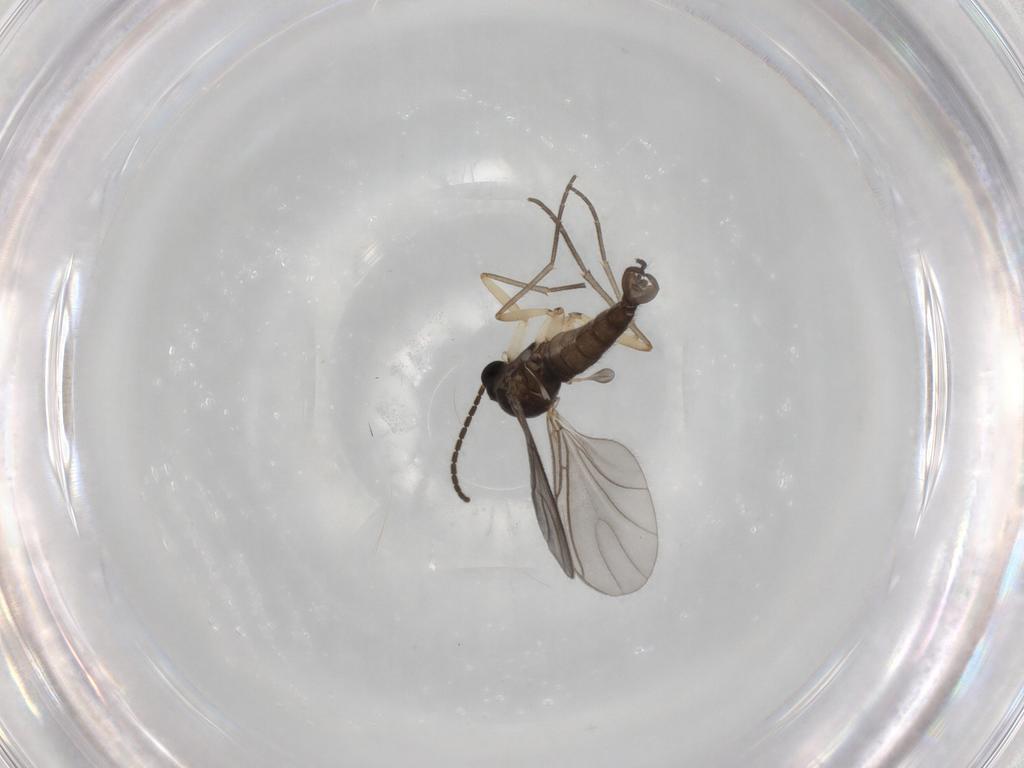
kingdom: Animalia
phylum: Arthropoda
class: Insecta
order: Diptera
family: Sciaridae
